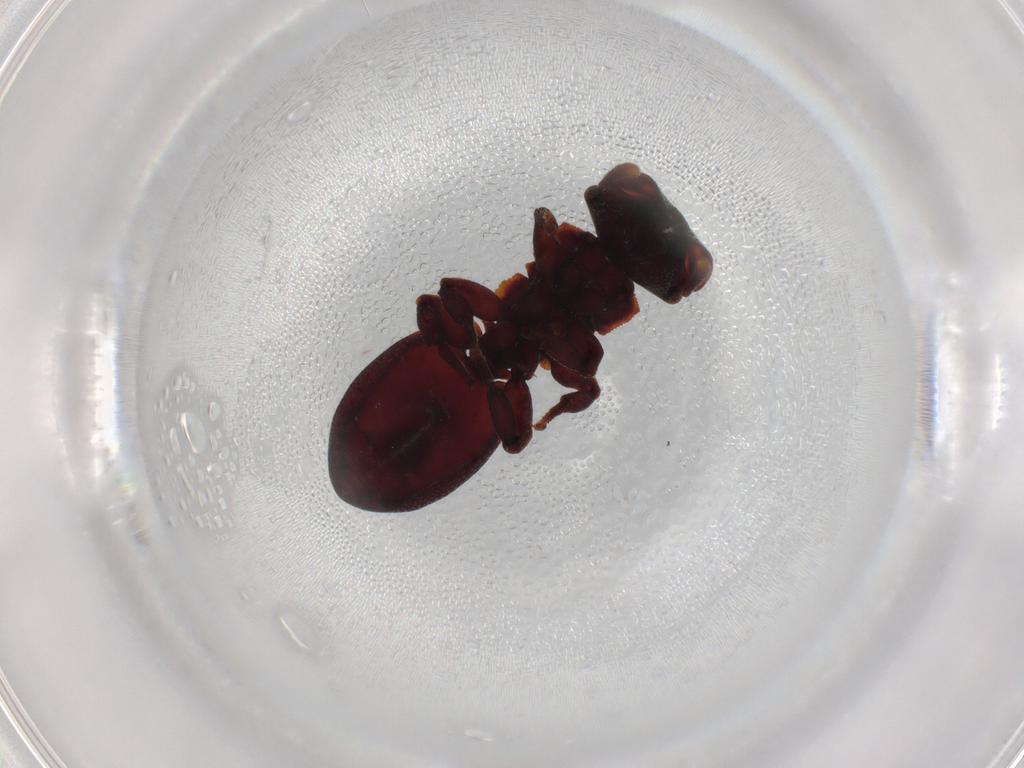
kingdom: Animalia
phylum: Arthropoda
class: Insecta
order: Hymenoptera
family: Formicidae
